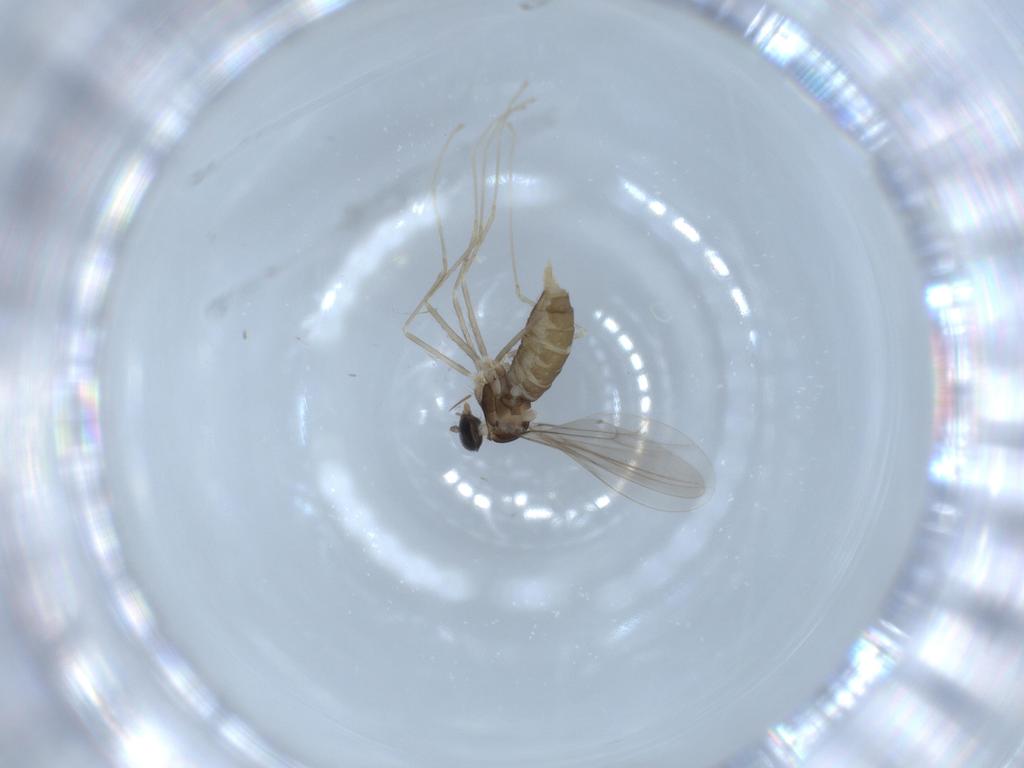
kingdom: Animalia
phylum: Arthropoda
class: Insecta
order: Diptera
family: Cecidomyiidae
